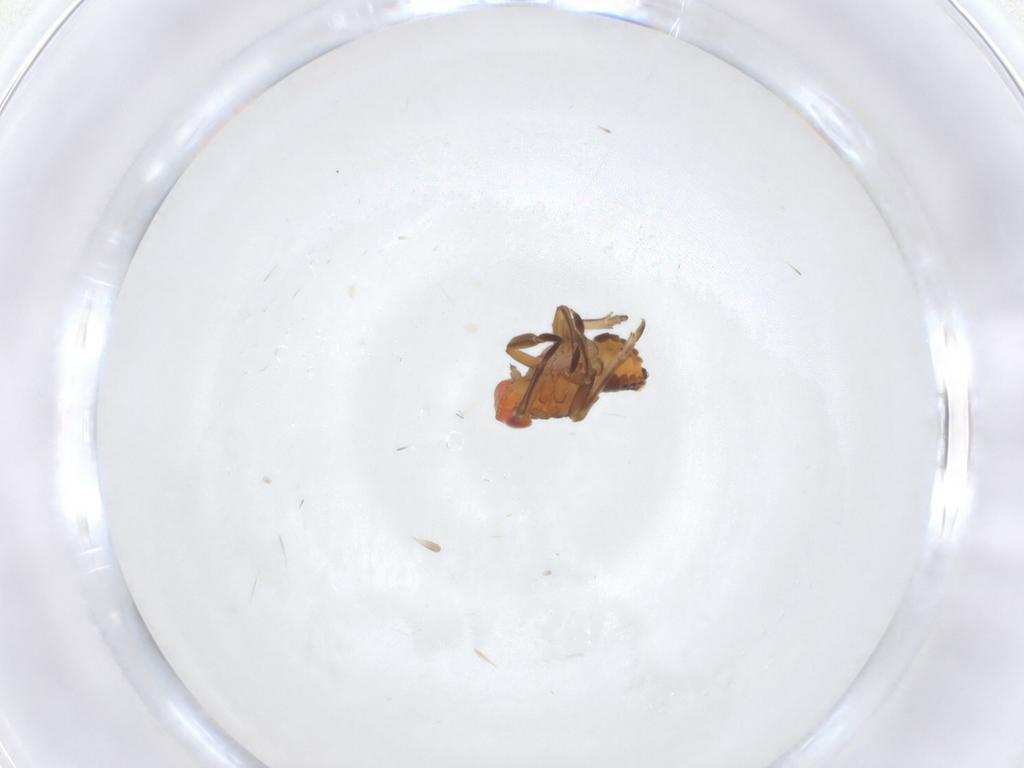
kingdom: Animalia
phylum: Arthropoda
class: Insecta
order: Hemiptera
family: Fulgoroidea_incertae_sedis
